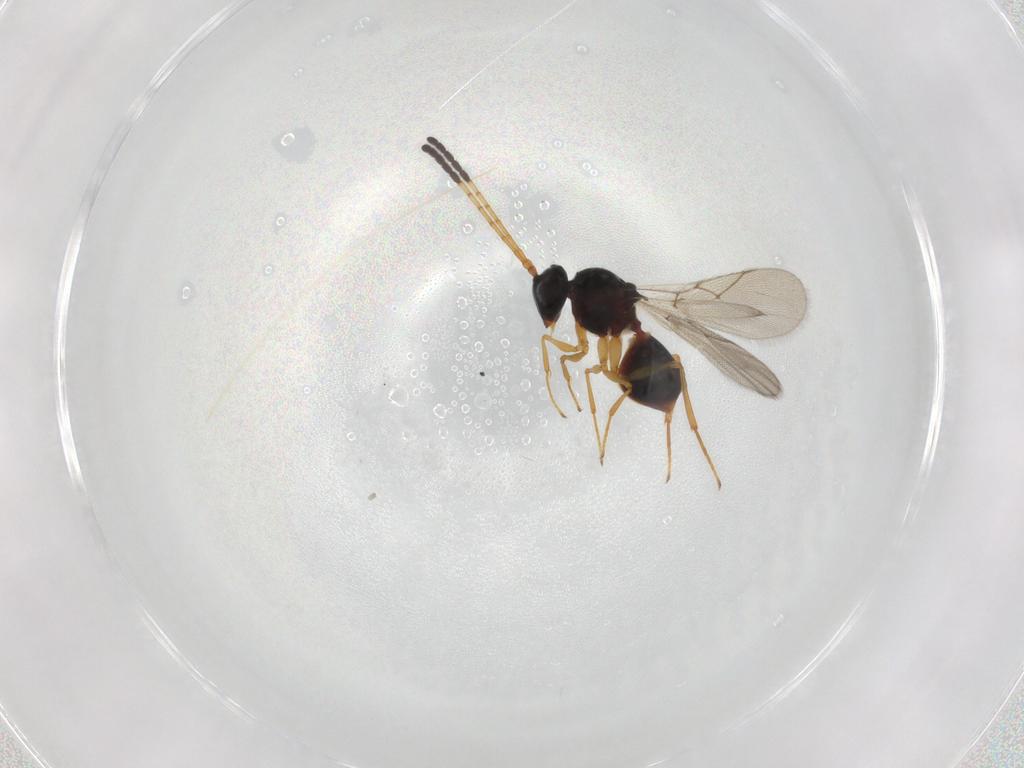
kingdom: Animalia
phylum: Arthropoda
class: Insecta
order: Hymenoptera
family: Figitidae
